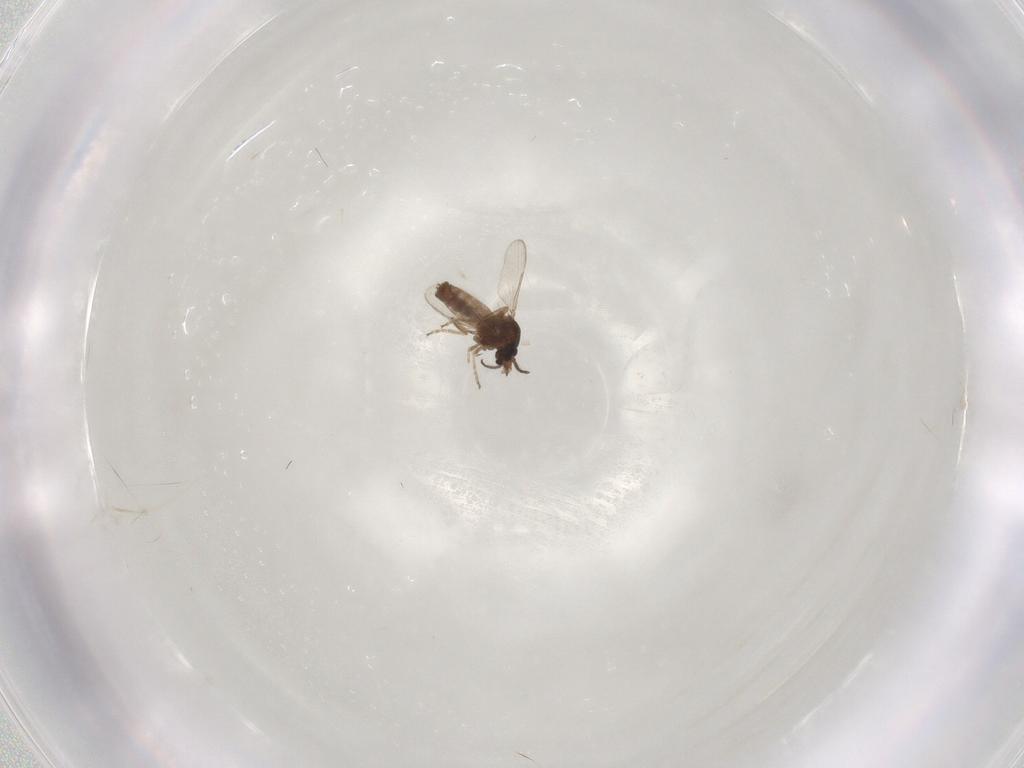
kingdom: Animalia
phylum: Arthropoda
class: Insecta
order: Diptera
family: Ceratopogonidae
